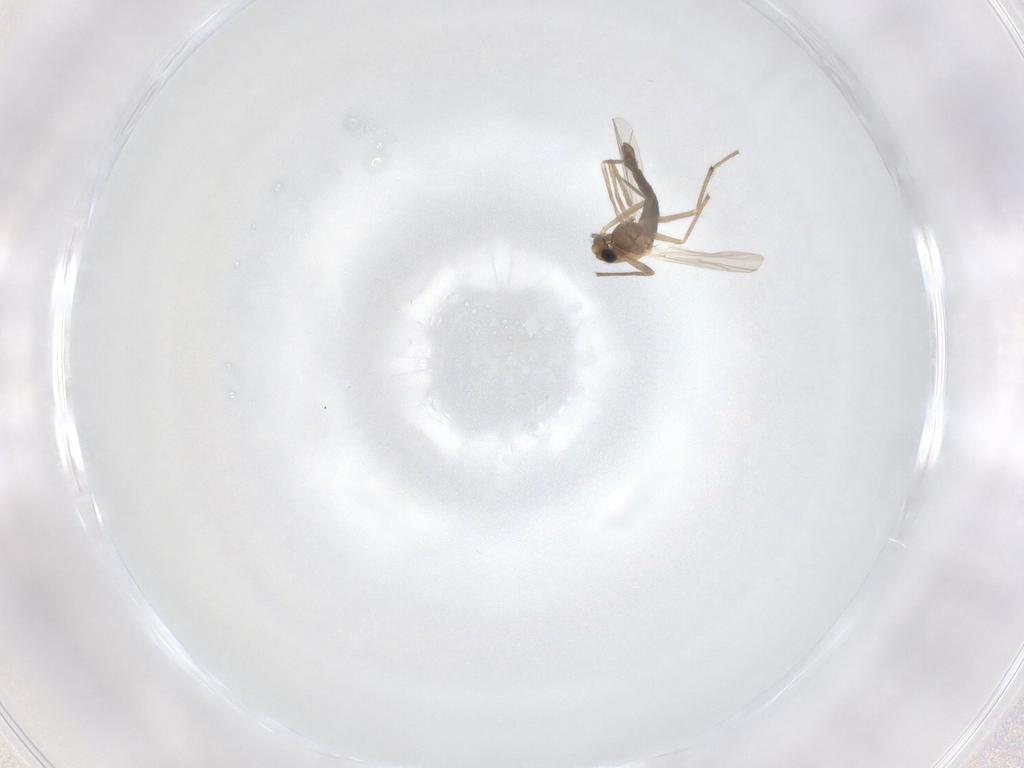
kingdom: Animalia
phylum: Arthropoda
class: Insecta
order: Diptera
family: Chironomidae
